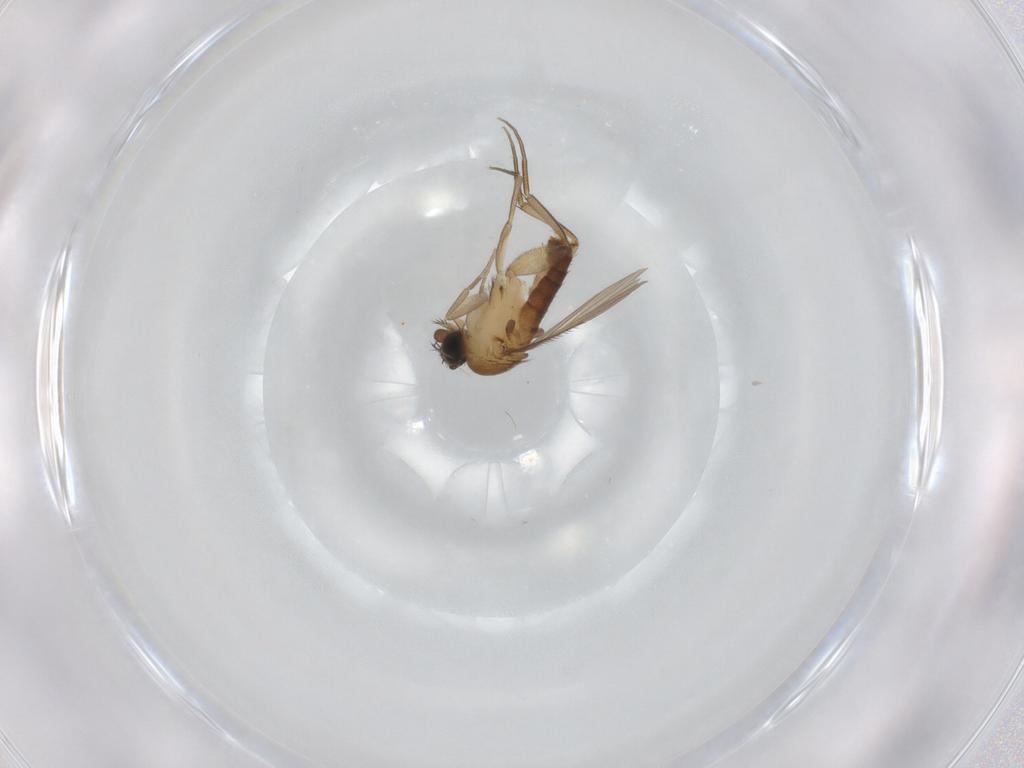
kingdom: Animalia
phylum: Arthropoda
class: Insecta
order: Diptera
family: Phoridae
